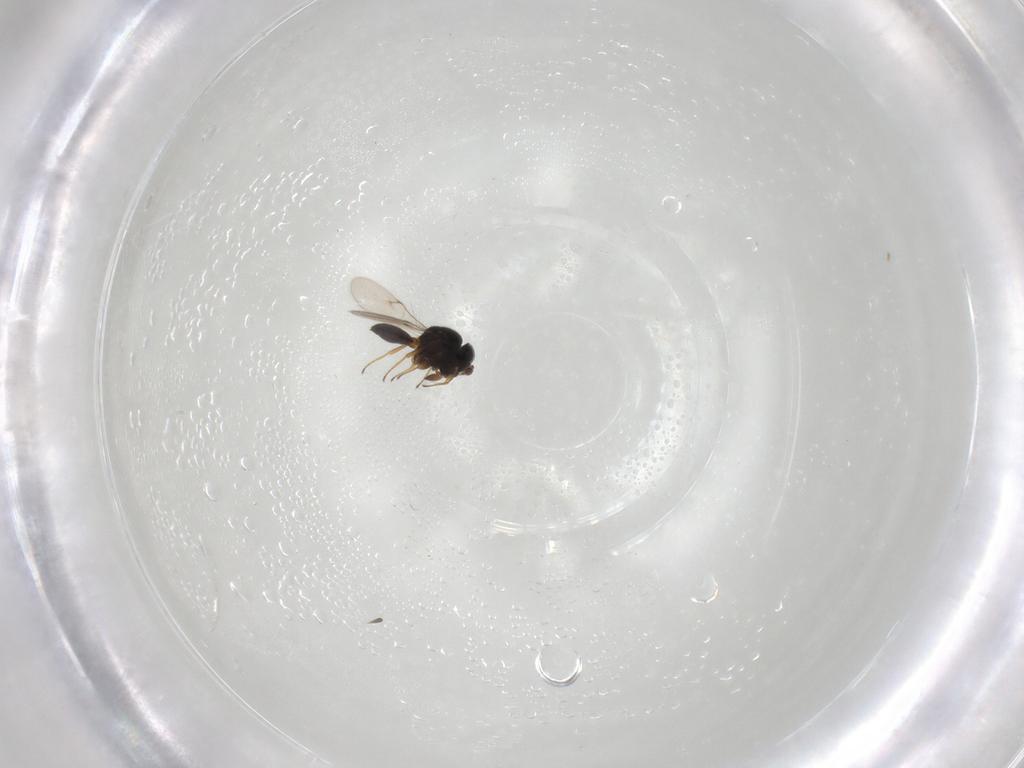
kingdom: Animalia
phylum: Arthropoda
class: Insecta
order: Hymenoptera
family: Scelionidae
